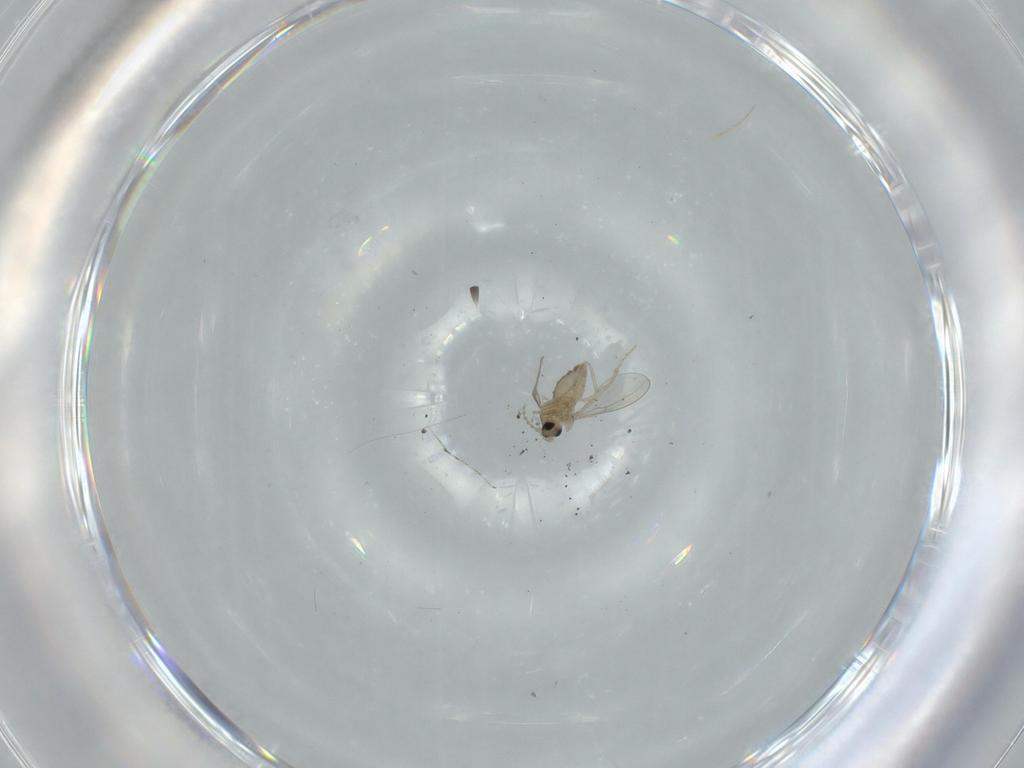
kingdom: Animalia
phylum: Arthropoda
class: Insecta
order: Diptera
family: Cecidomyiidae
